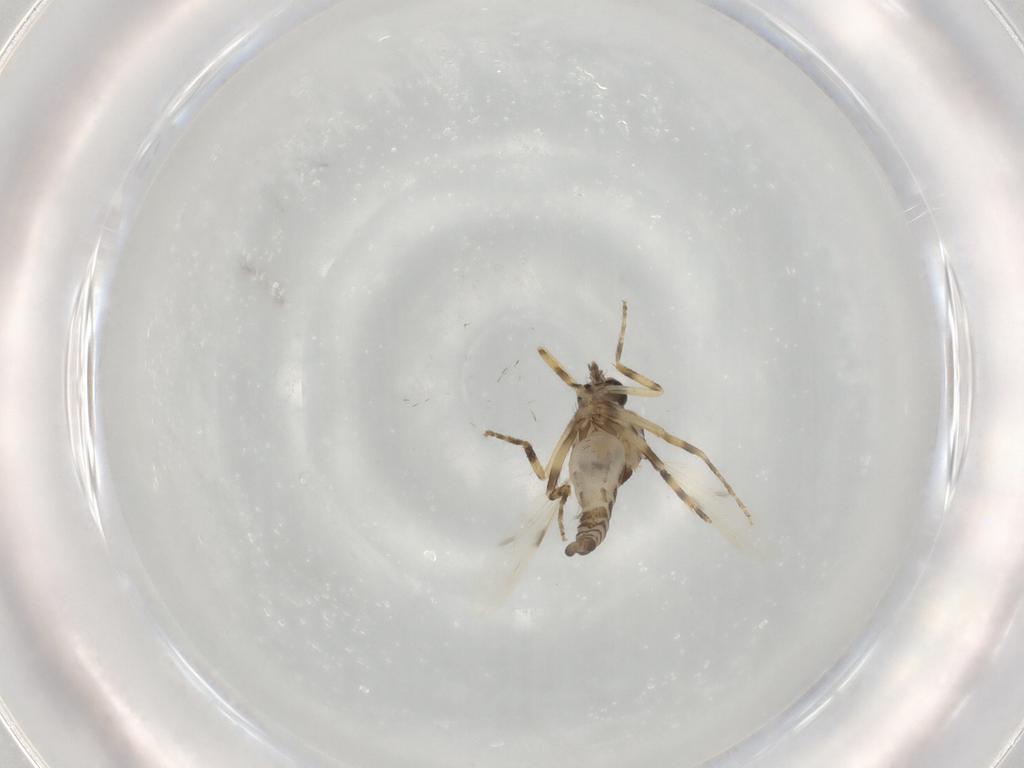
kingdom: Animalia
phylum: Arthropoda
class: Insecta
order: Diptera
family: Ceratopogonidae
